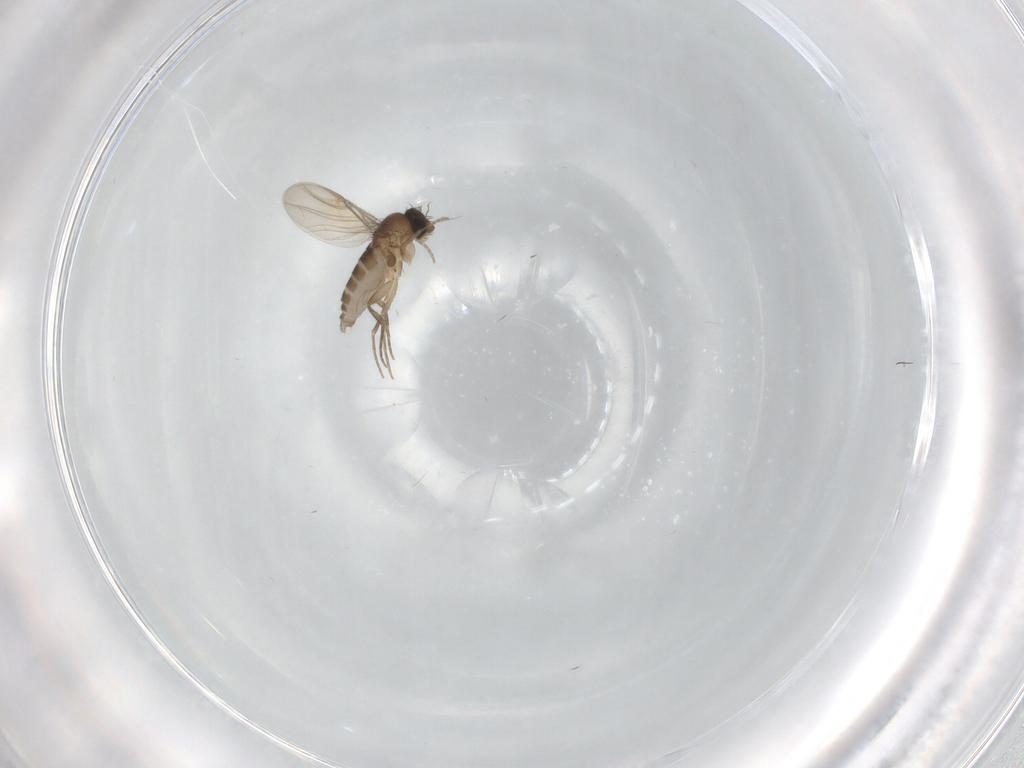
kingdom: Animalia
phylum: Arthropoda
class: Insecta
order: Diptera
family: Phoridae
